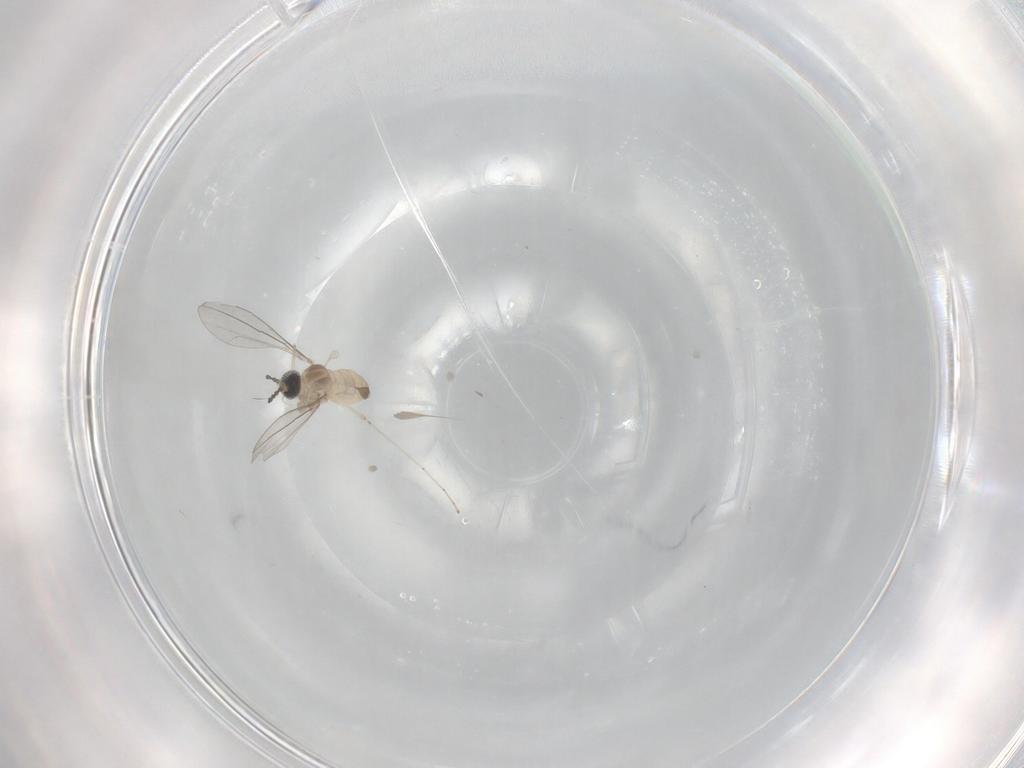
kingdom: Animalia
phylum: Arthropoda
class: Insecta
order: Diptera
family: Cecidomyiidae
